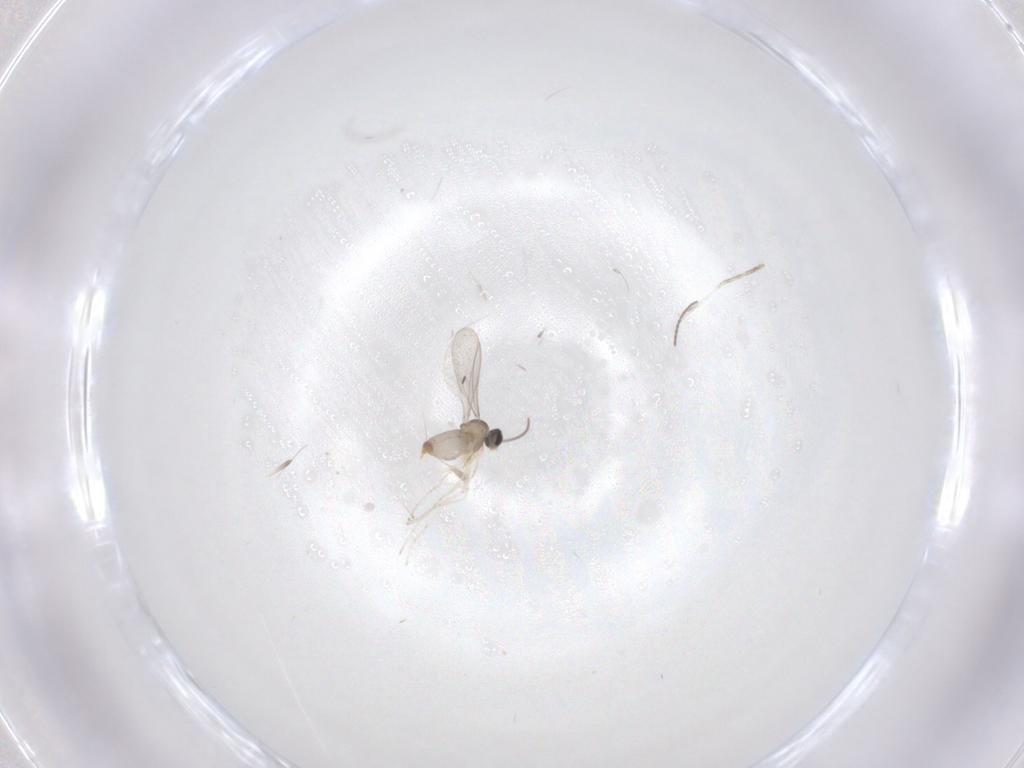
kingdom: Animalia
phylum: Arthropoda
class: Insecta
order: Diptera
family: Cecidomyiidae
